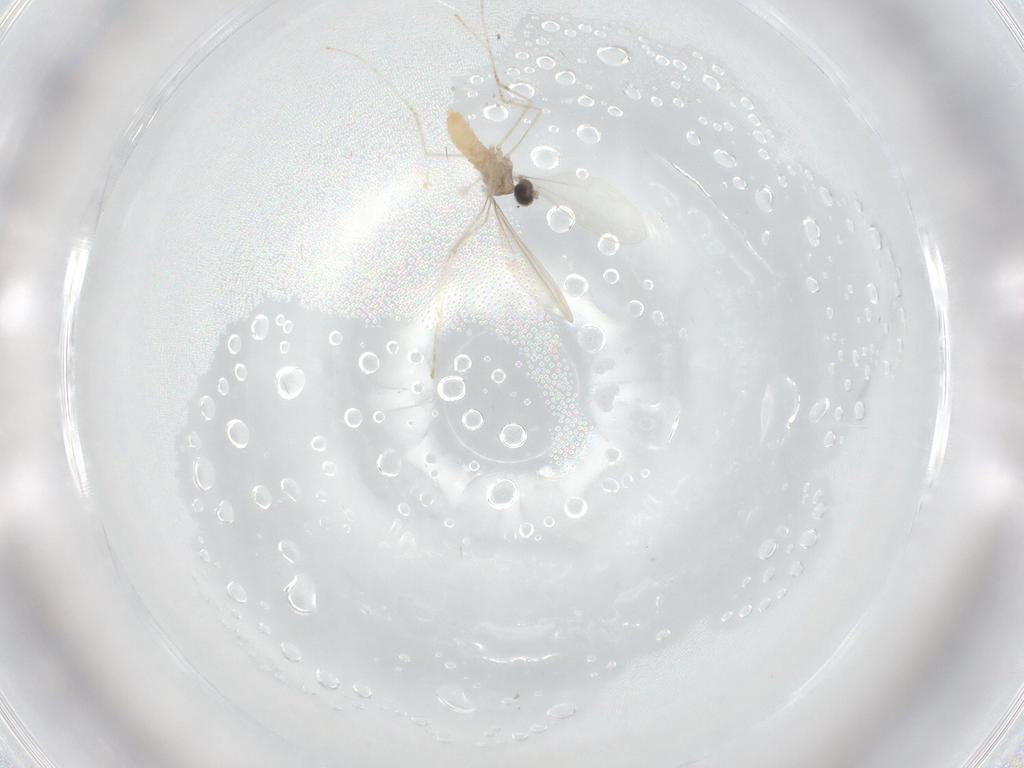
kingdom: Animalia
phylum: Arthropoda
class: Insecta
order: Diptera
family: Cecidomyiidae
